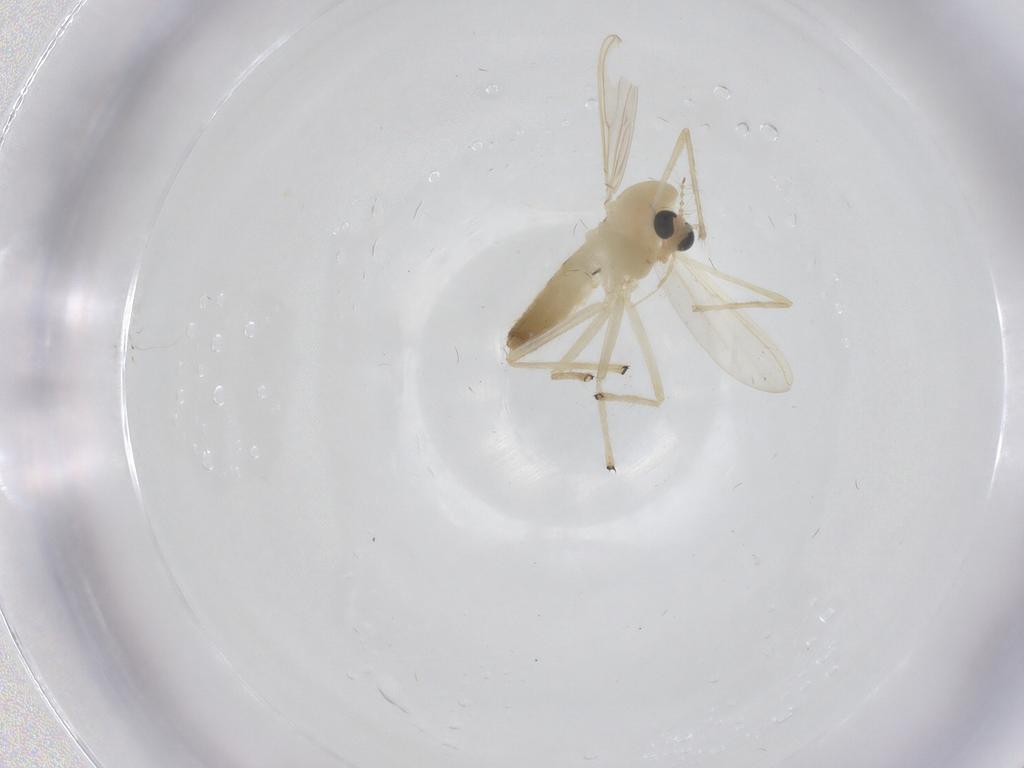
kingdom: Animalia
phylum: Arthropoda
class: Insecta
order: Diptera
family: Chironomidae
